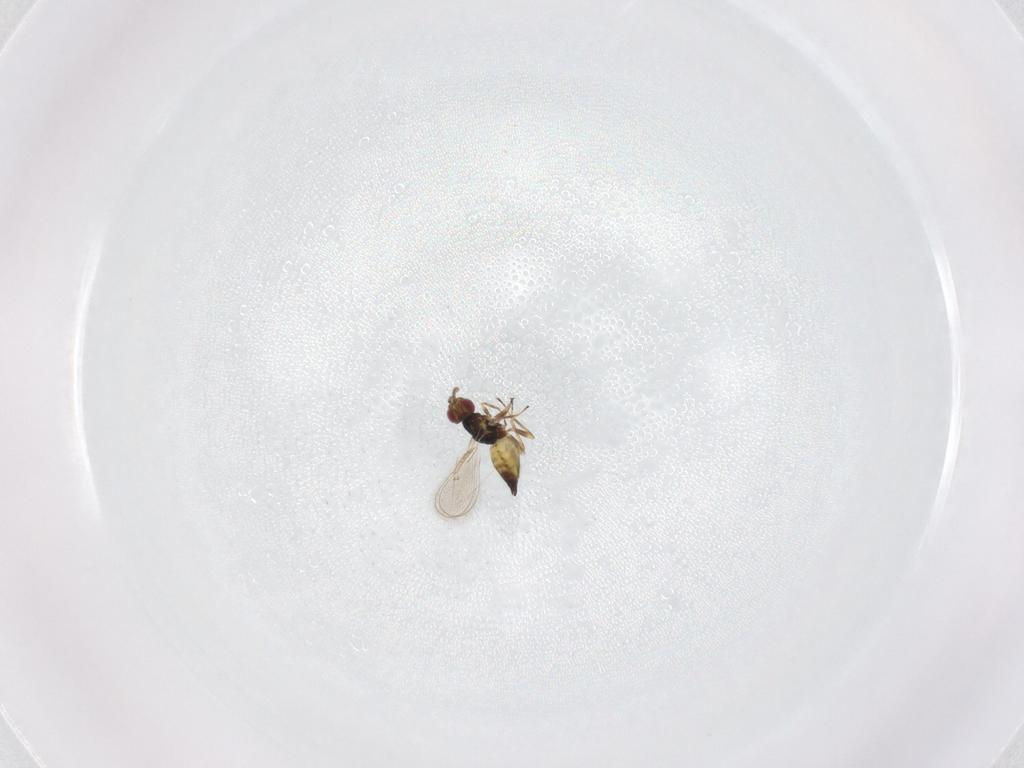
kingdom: Animalia
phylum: Arthropoda
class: Insecta
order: Hymenoptera
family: Eulophidae
